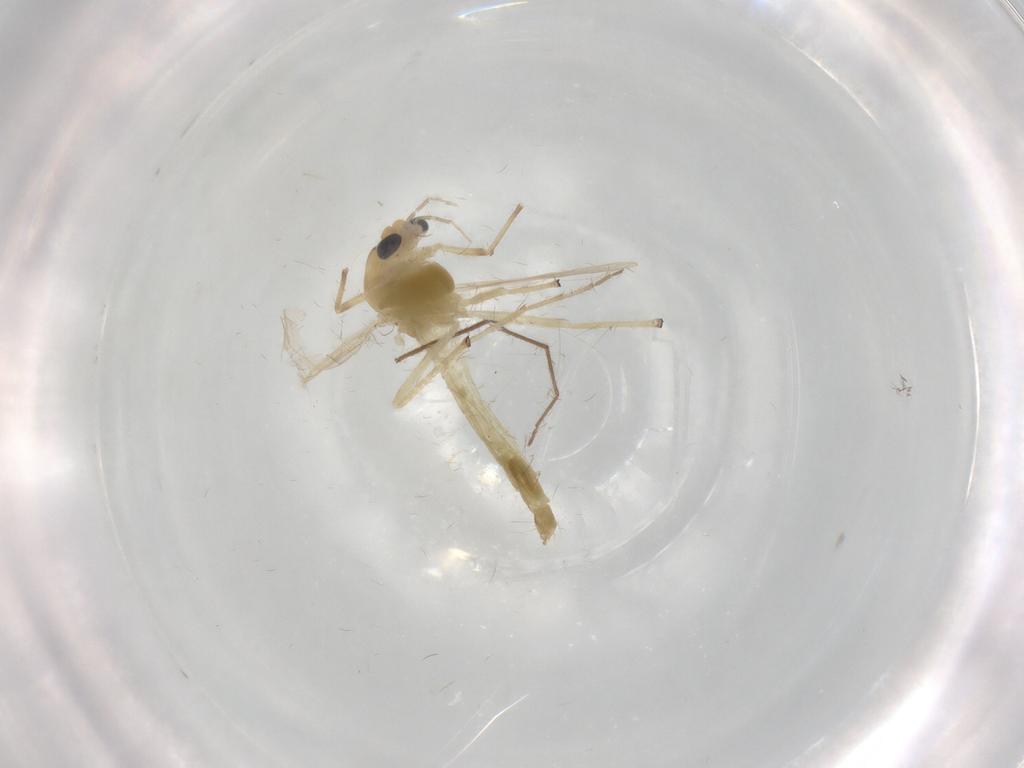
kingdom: Animalia
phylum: Arthropoda
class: Insecta
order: Diptera
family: Chironomidae
